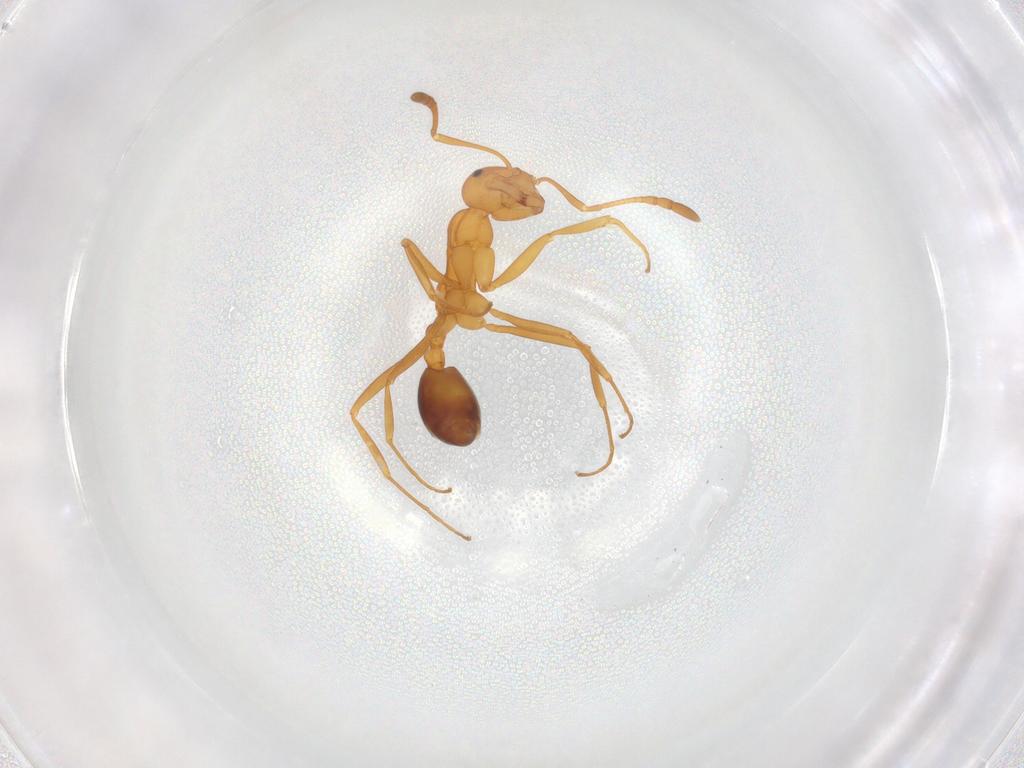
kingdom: Animalia
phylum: Arthropoda
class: Insecta
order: Hymenoptera
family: Formicidae
